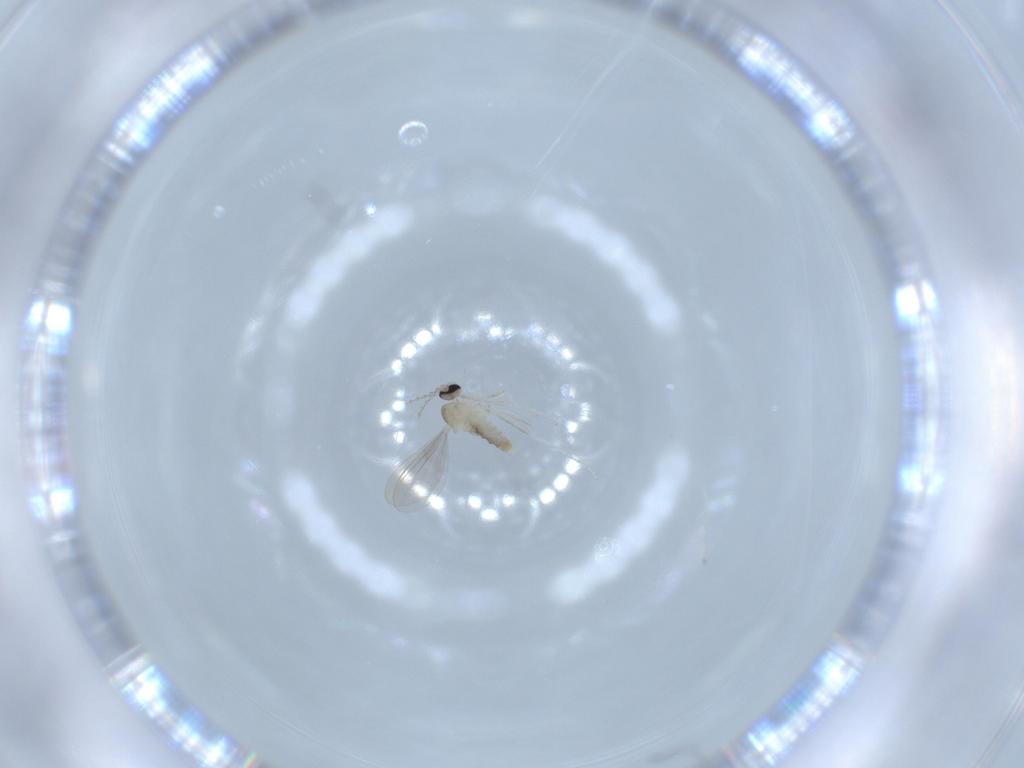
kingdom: Animalia
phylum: Arthropoda
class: Insecta
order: Diptera
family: Cecidomyiidae
